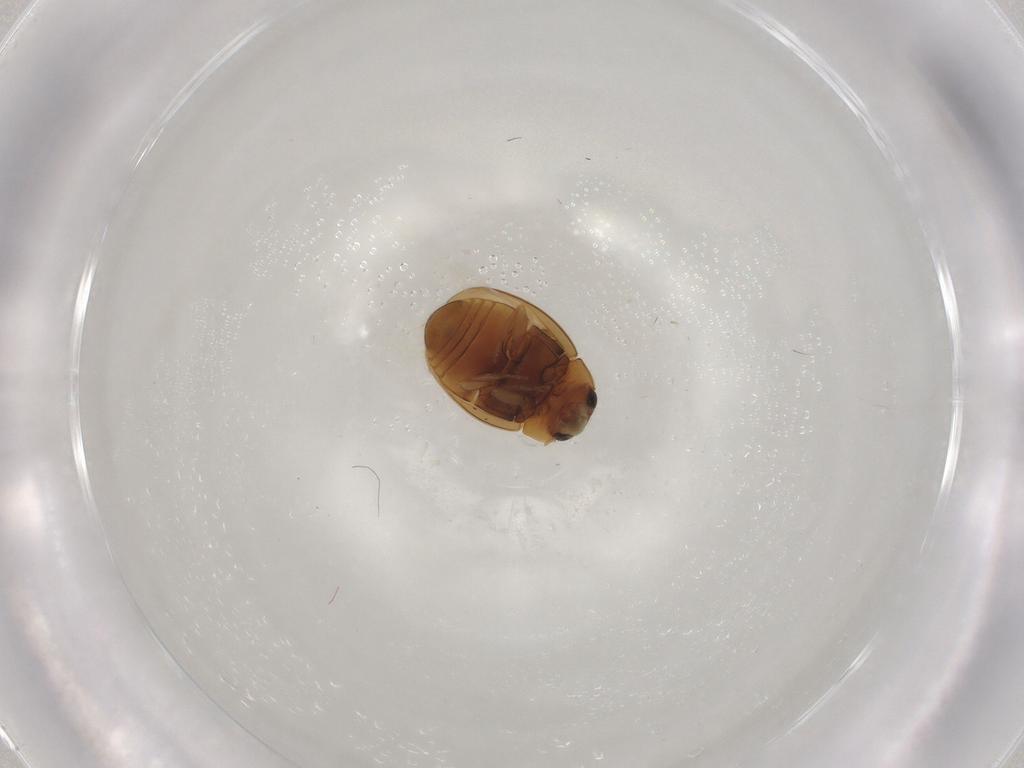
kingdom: Animalia
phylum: Arthropoda
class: Insecta
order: Coleoptera
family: Coccinellidae
